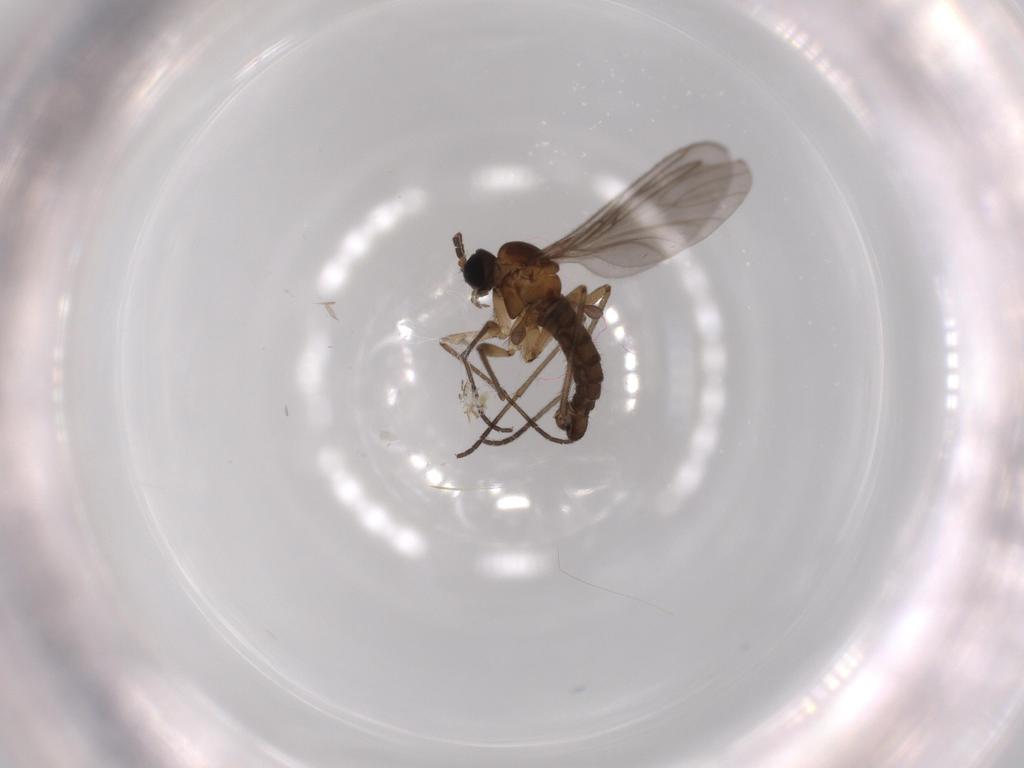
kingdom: Animalia
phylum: Arthropoda
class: Insecta
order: Diptera
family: Sciaridae
